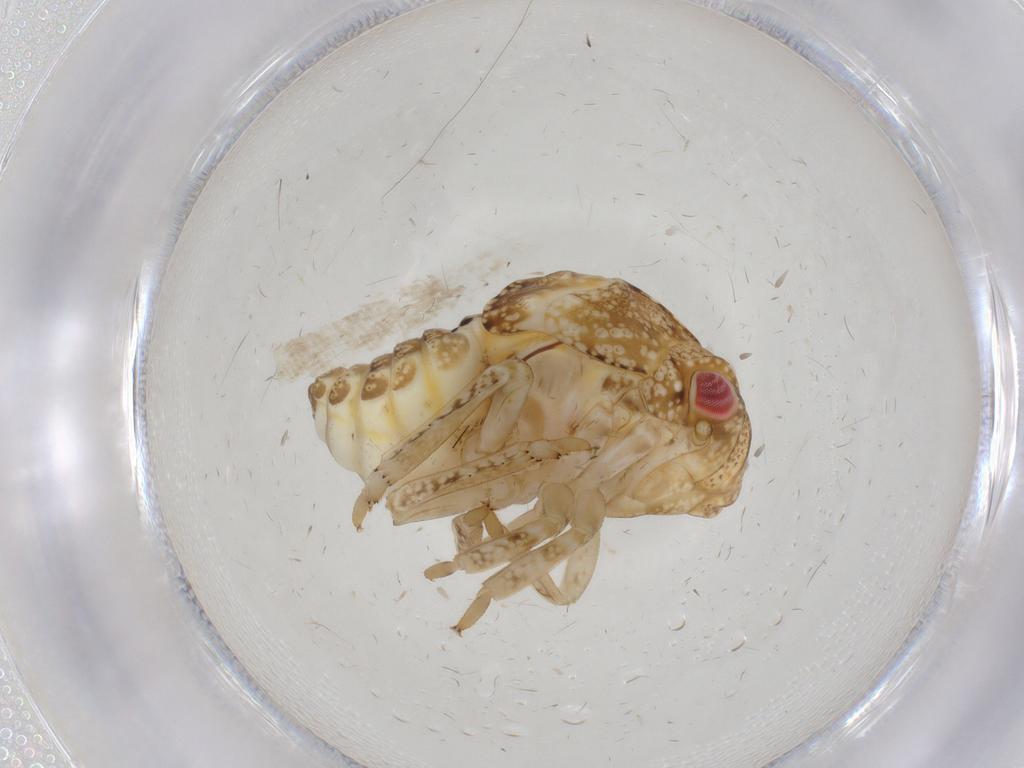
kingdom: Animalia
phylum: Arthropoda
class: Insecta
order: Hemiptera
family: Acanaloniidae
